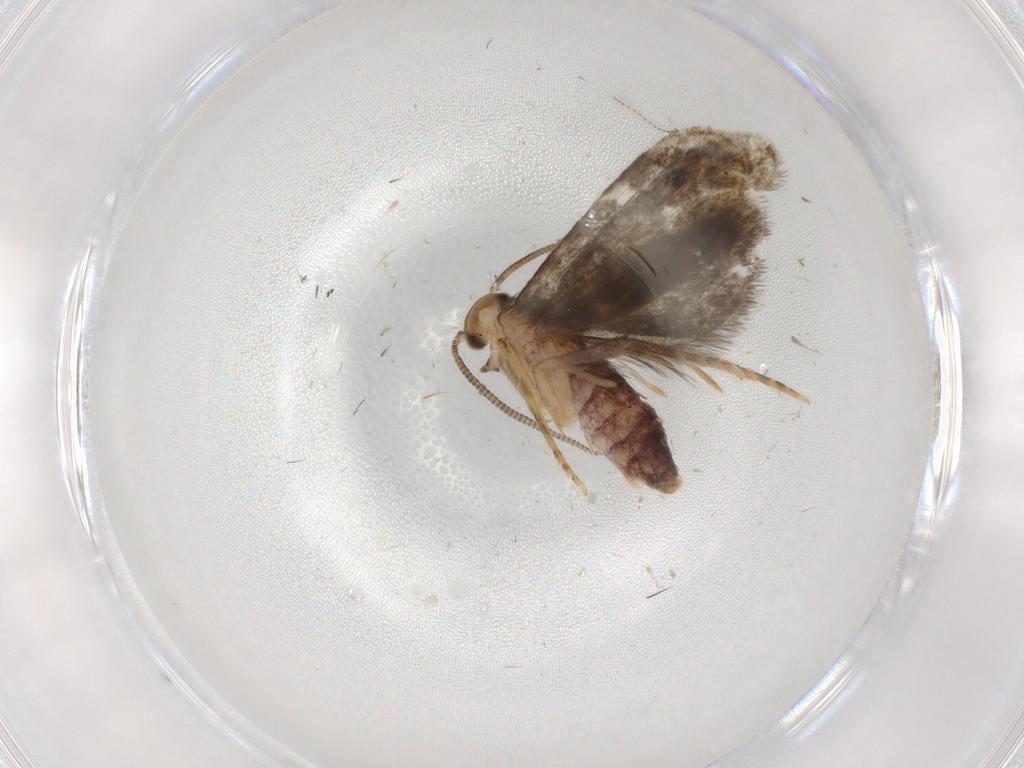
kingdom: Animalia
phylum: Arthropoda
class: Insecta
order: Lepidoptera
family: Dryadaulidae
